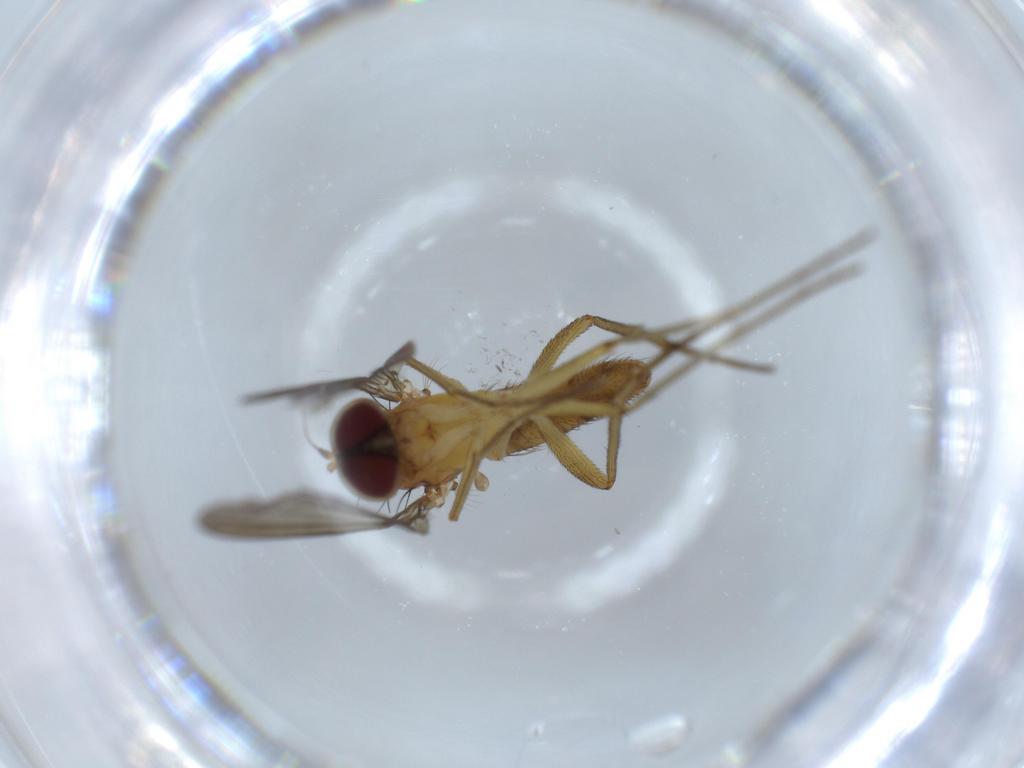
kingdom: Animalia
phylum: Arthropoda
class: Insecta
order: Diptera
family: Dolichopodidae
